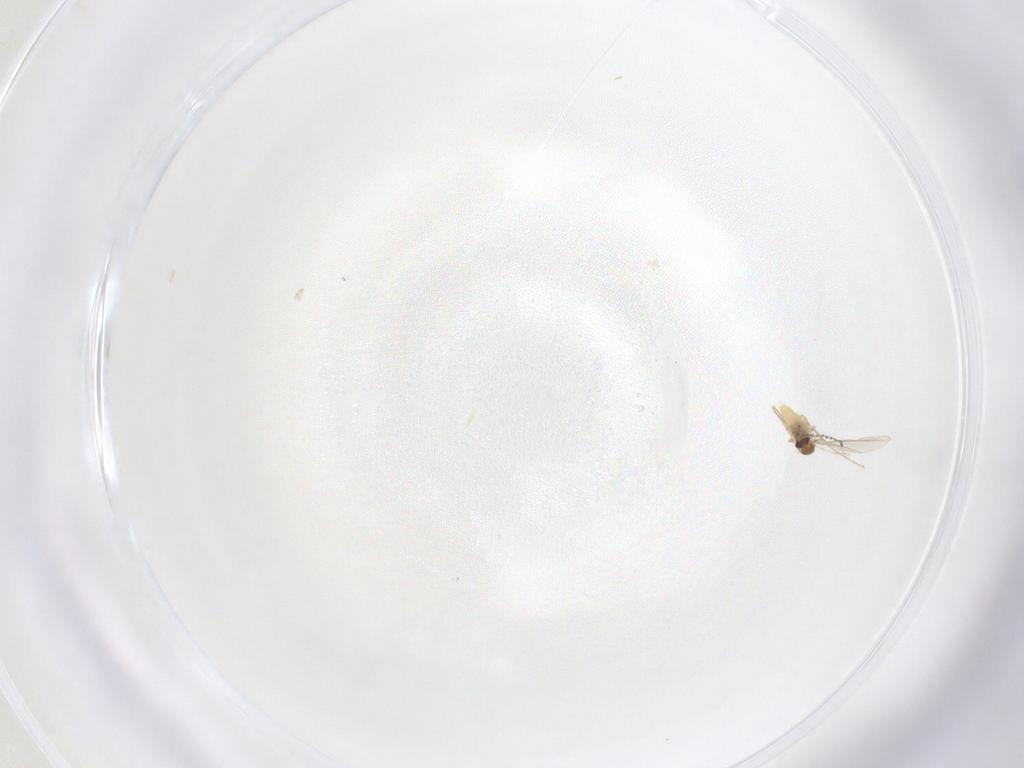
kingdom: Animalia
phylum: Arthropoda
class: Insecta
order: Diptera
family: Cecidomyiidae
